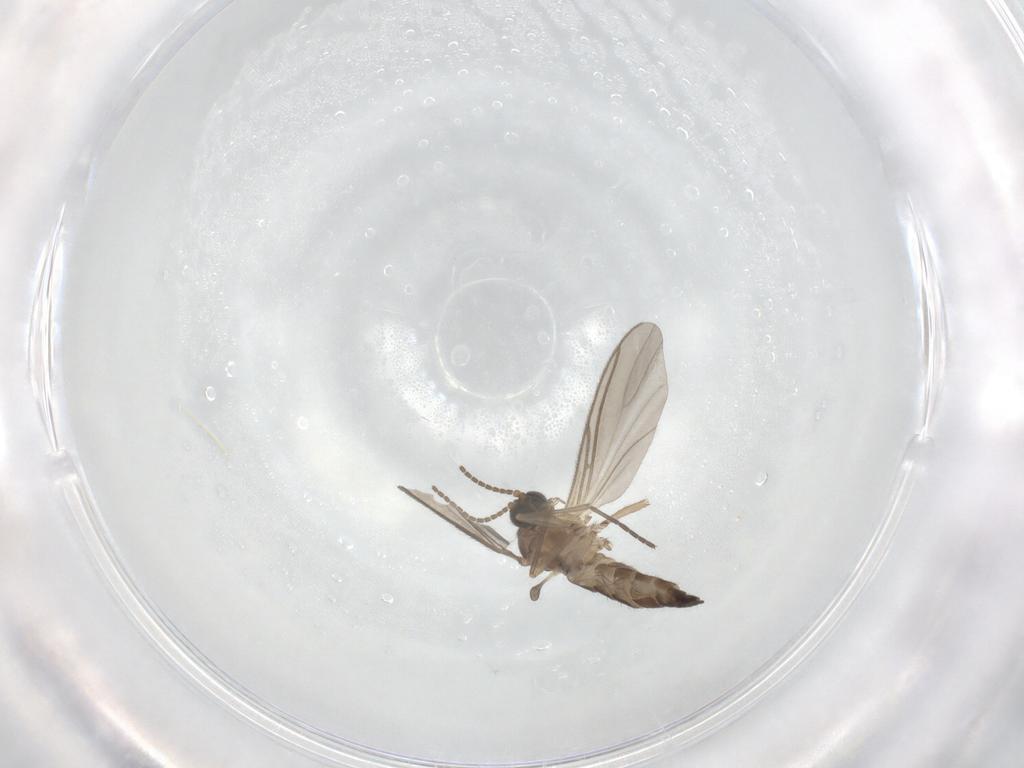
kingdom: Animalia
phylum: Arthropoda
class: Insecta
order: Diptera
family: Sciaridae
